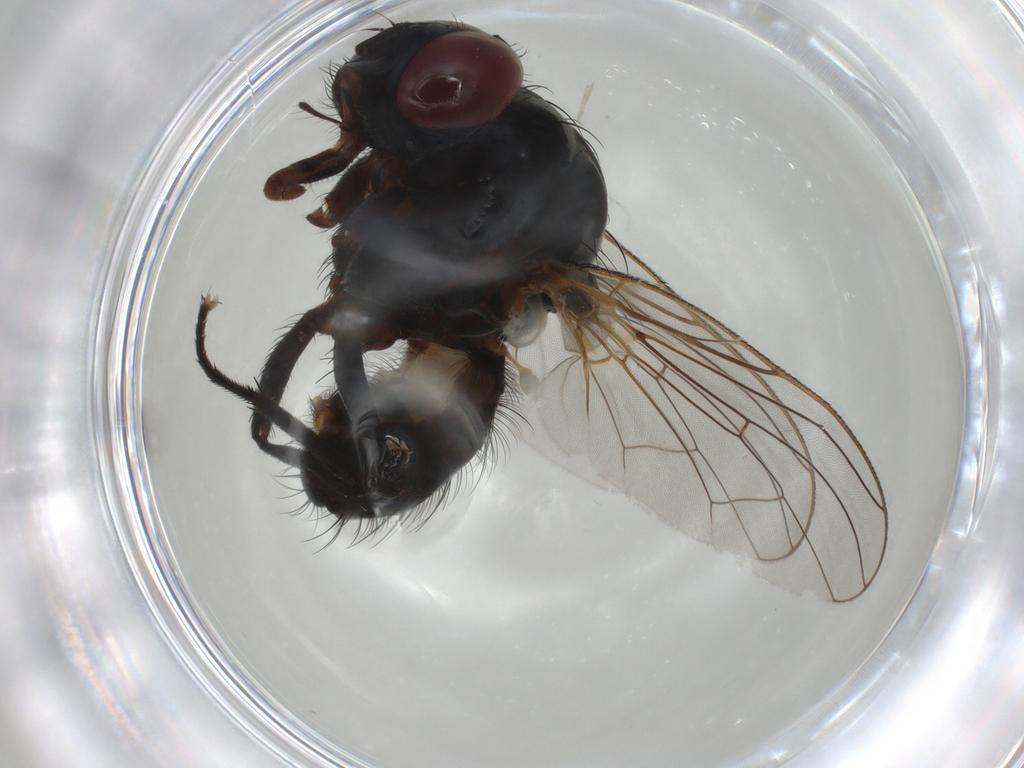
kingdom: Animalia
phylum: Arthropoda
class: Insecta
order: Diptera
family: Anthomyiidae
